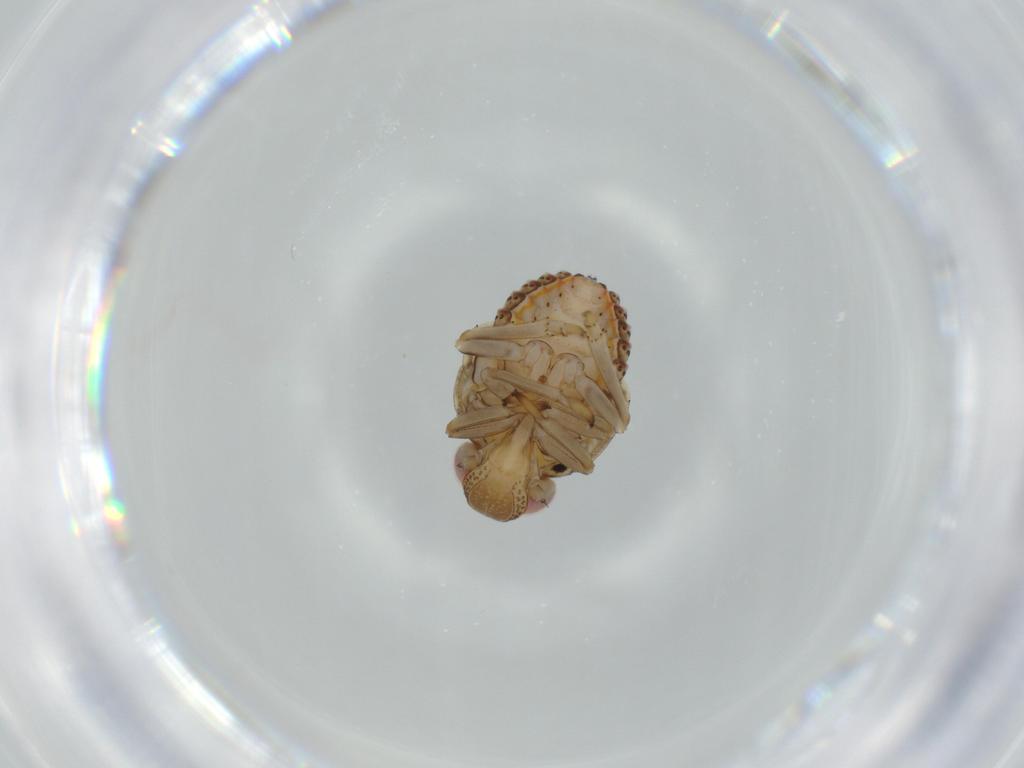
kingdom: Animalia
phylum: Arthropoda
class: Insecta
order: Hemiptera
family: Issidae
